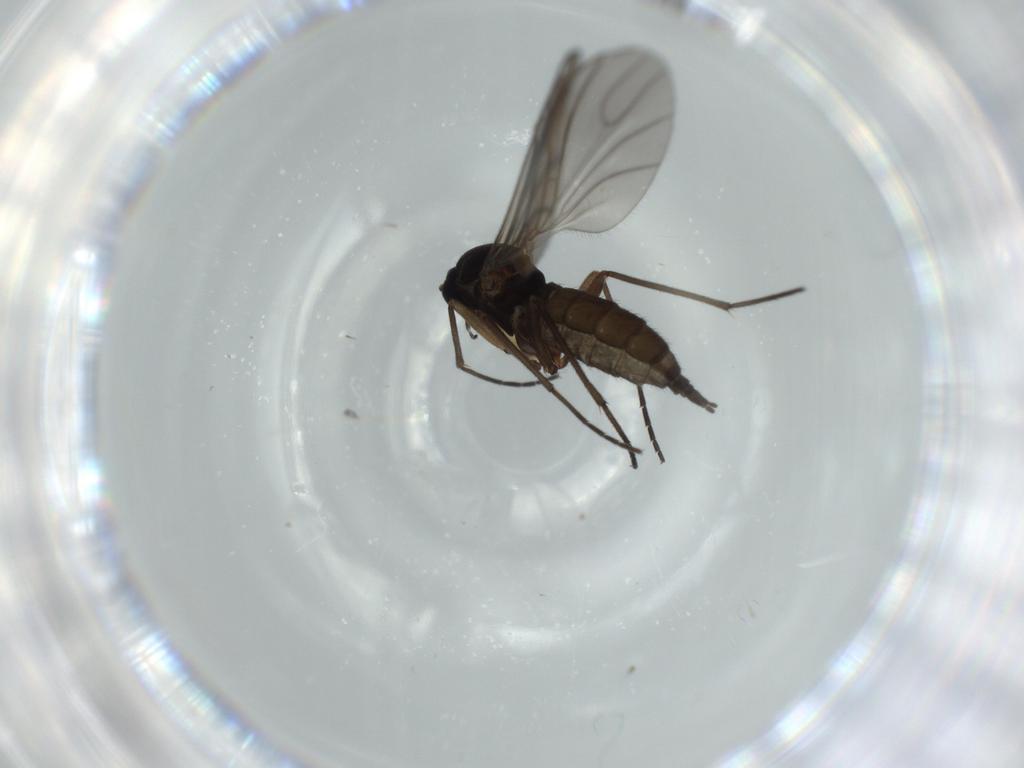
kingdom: Animalia
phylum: Arthropoda
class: Insecta
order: Diptera
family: Sciaridae
